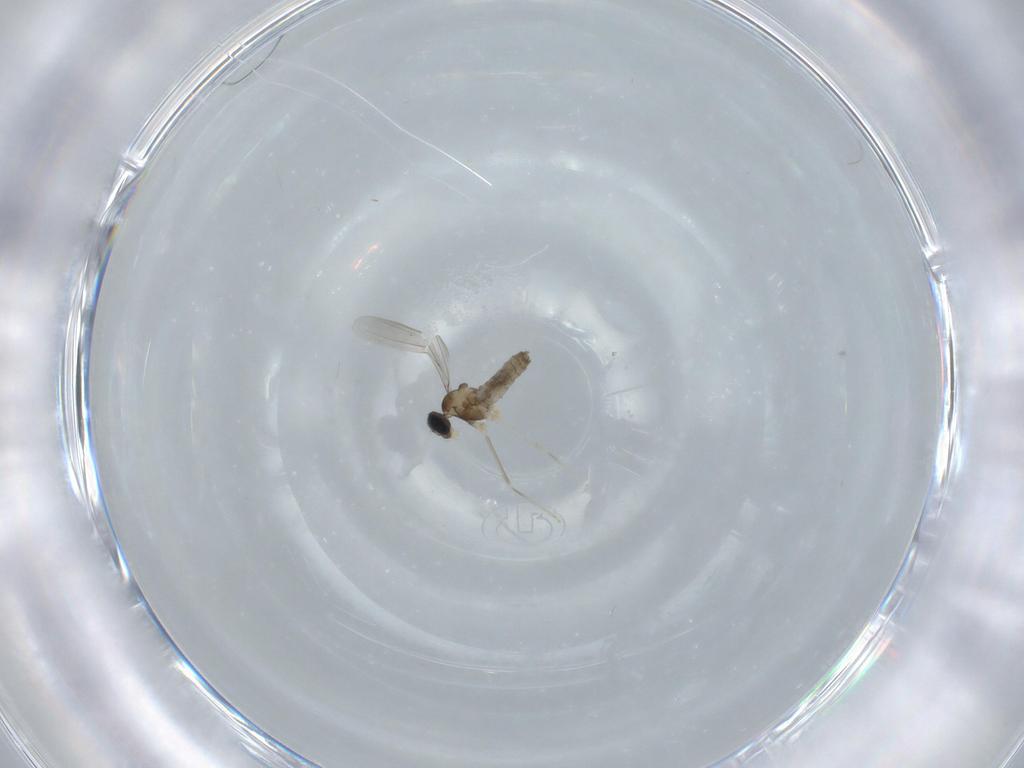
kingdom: Animalia
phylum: Arthropoda
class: Insecta
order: Diptera
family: Cecidomyiidae
